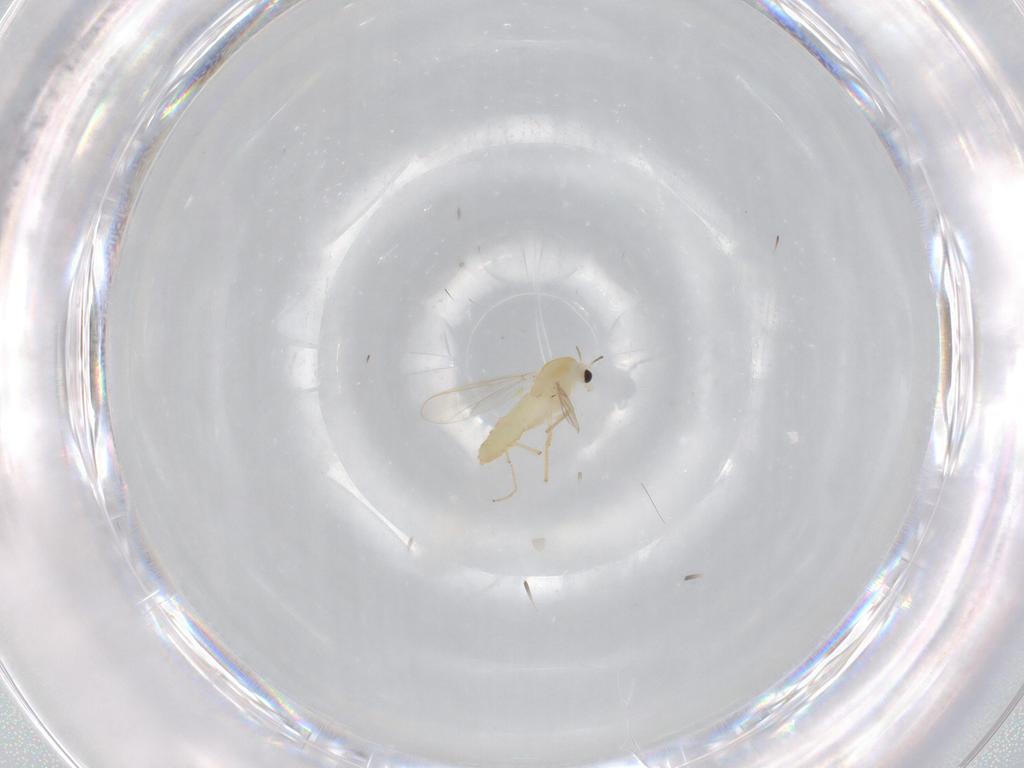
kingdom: Animalia
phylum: Arthropoda
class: Insecta
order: Diptera
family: Chironomidae
